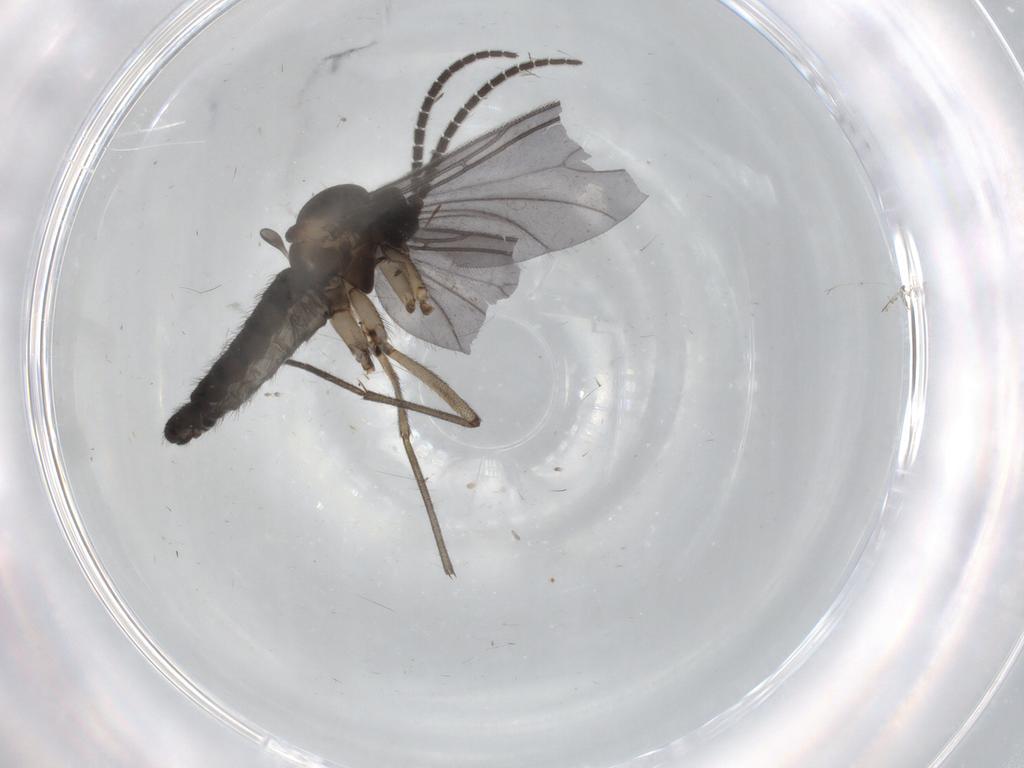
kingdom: Animalia
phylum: Arthropoda
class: Insecta
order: Diptera
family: Sciaridae
